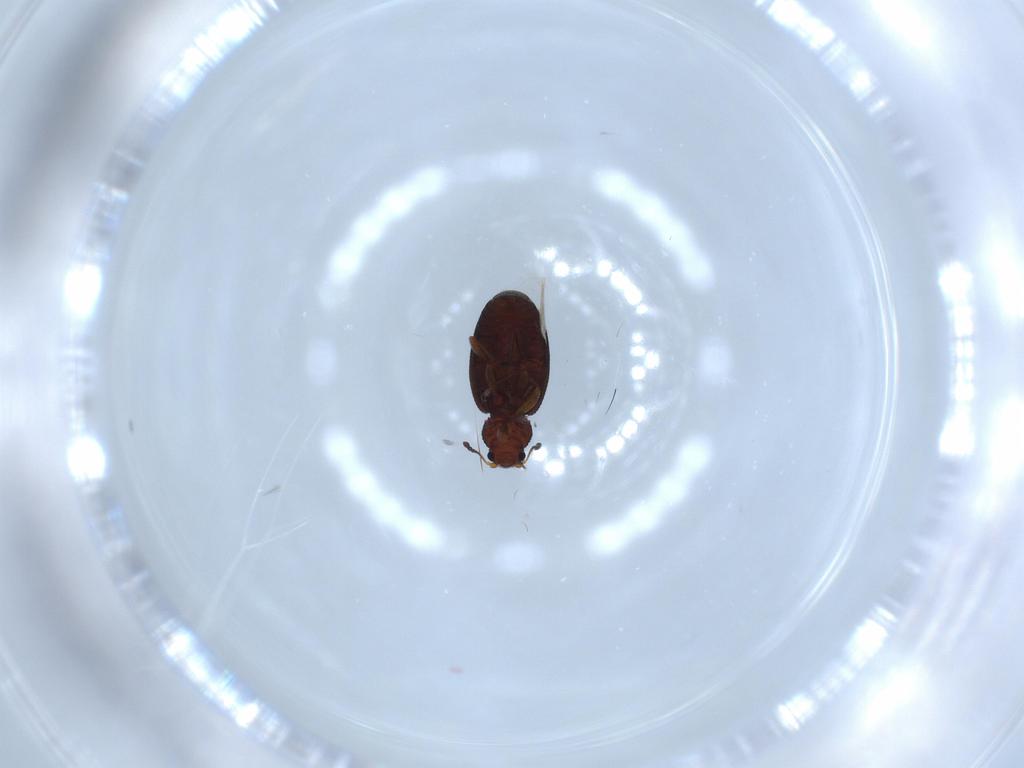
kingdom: Animalia
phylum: Arthropoda
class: Insecta
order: Coleoptera
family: Latridiidae
